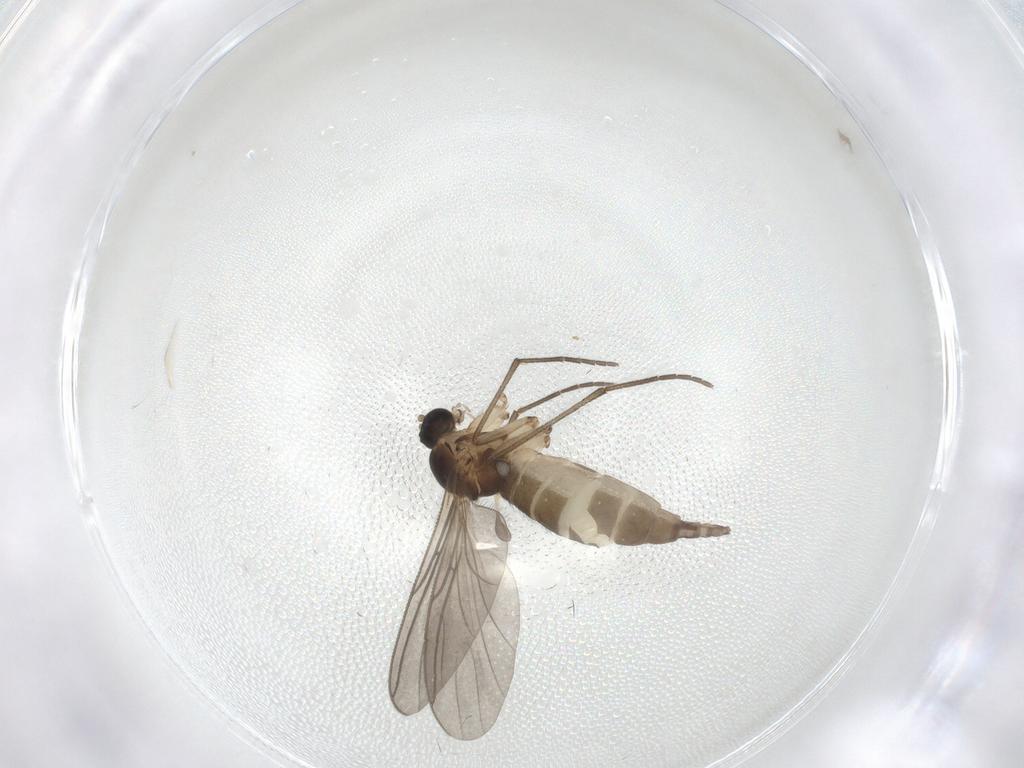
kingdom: Animalia
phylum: Arthropoda
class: Insecta
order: Diptera
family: Sciaridae
